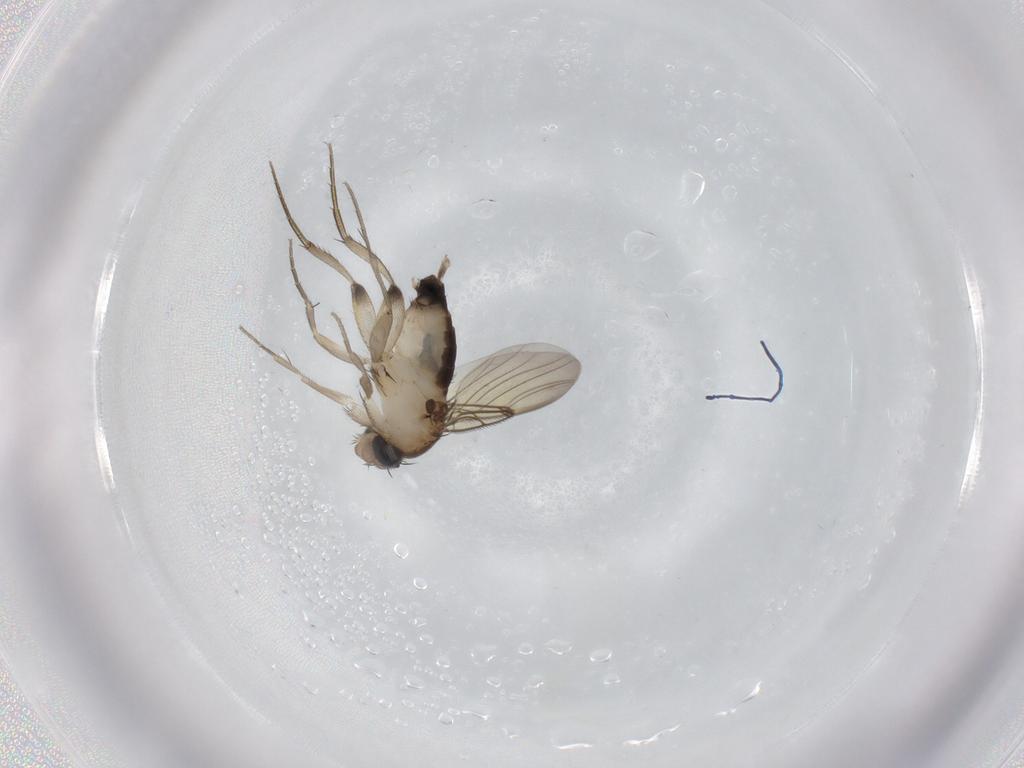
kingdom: Animalia
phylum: Arthropoda
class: Insecta
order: Diptera
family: Phoridae
